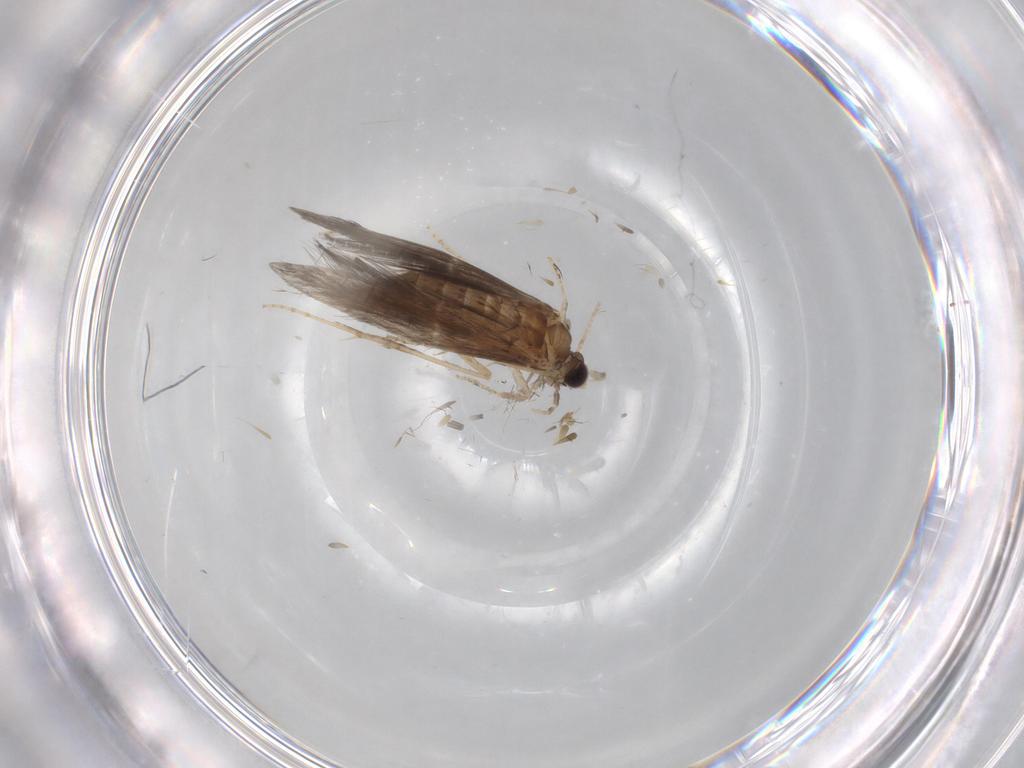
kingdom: Animalia
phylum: Arthropoda
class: Insecta
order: Trichoptera
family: Hydroptilidae
